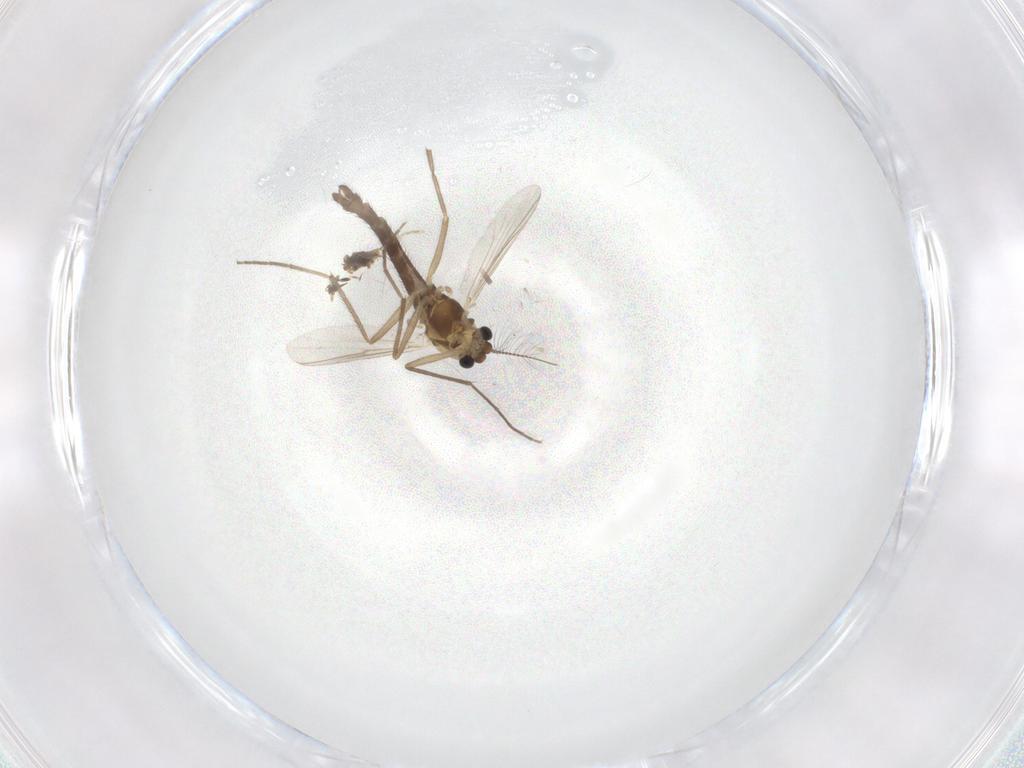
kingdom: Animalia
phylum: Arthropoda
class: Insecta
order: Diptera
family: Chironomidae
